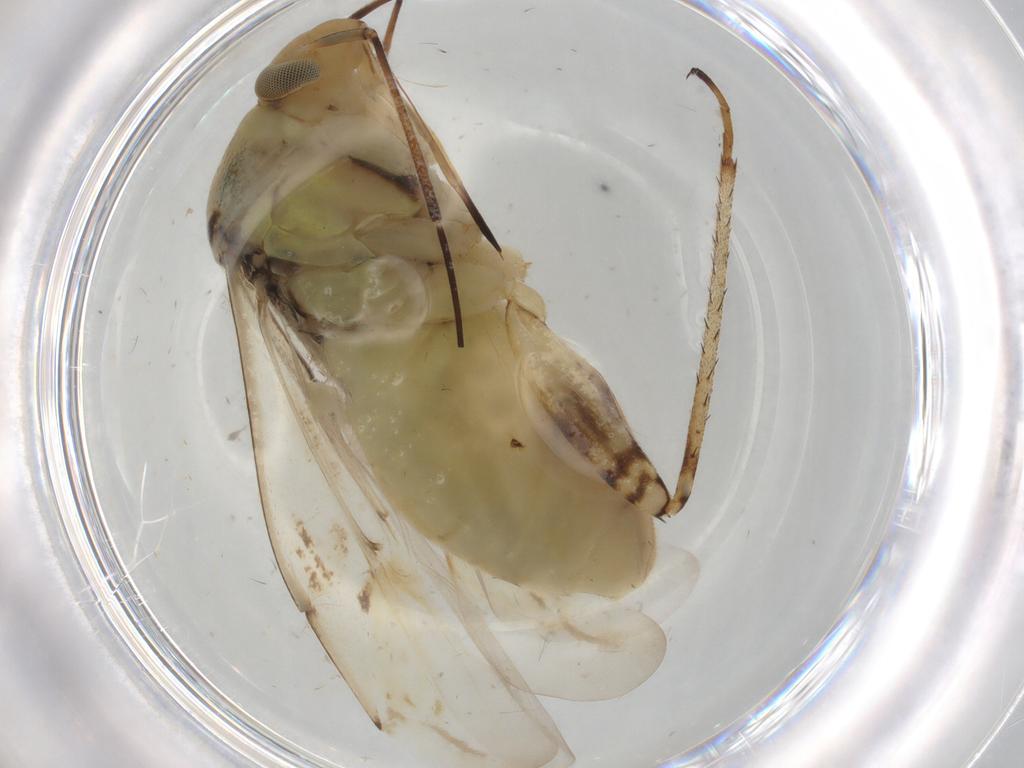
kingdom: Animalia
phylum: Arthropoda
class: Insecta
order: Hemiptera
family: Miridae
